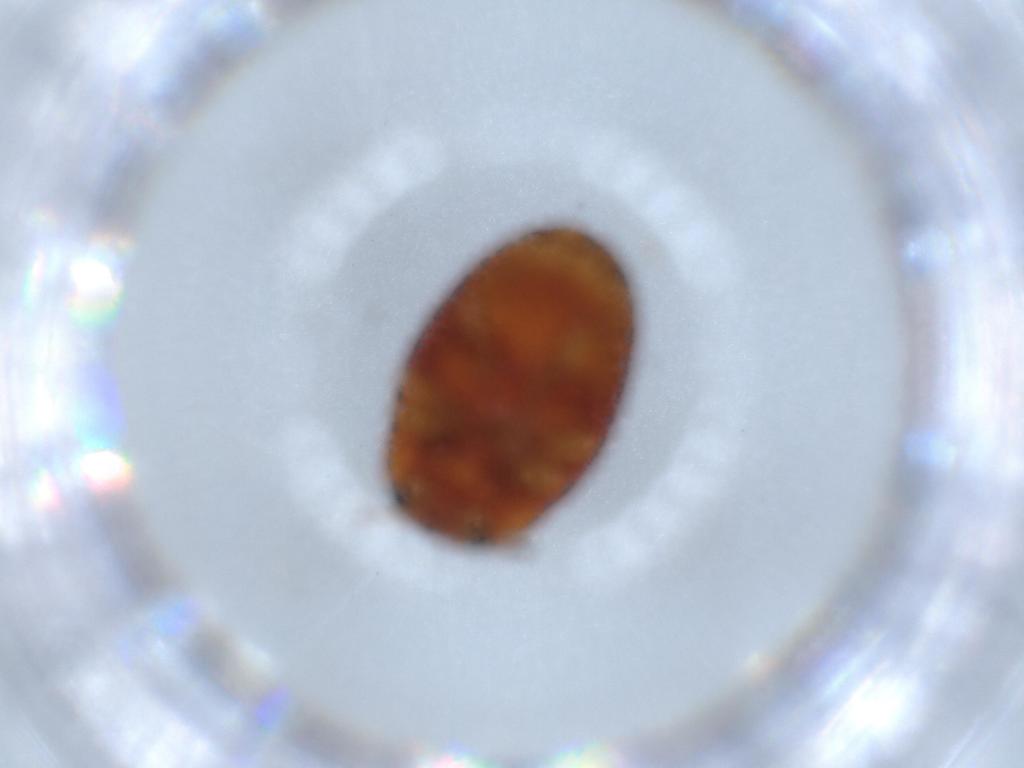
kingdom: Animalia
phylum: Arthropoda
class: Insecta
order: Coleoptera
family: Erotylidae
